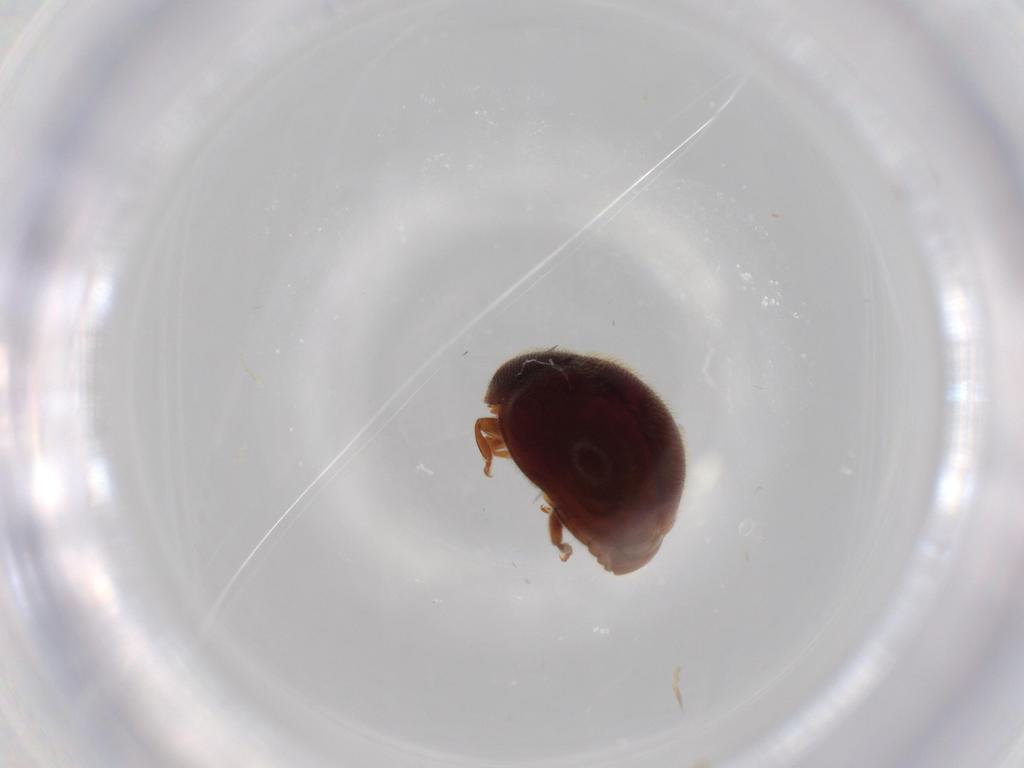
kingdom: Animalia
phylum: Arthropoda
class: Insecta
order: Coleoptera
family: Coccinellidae
